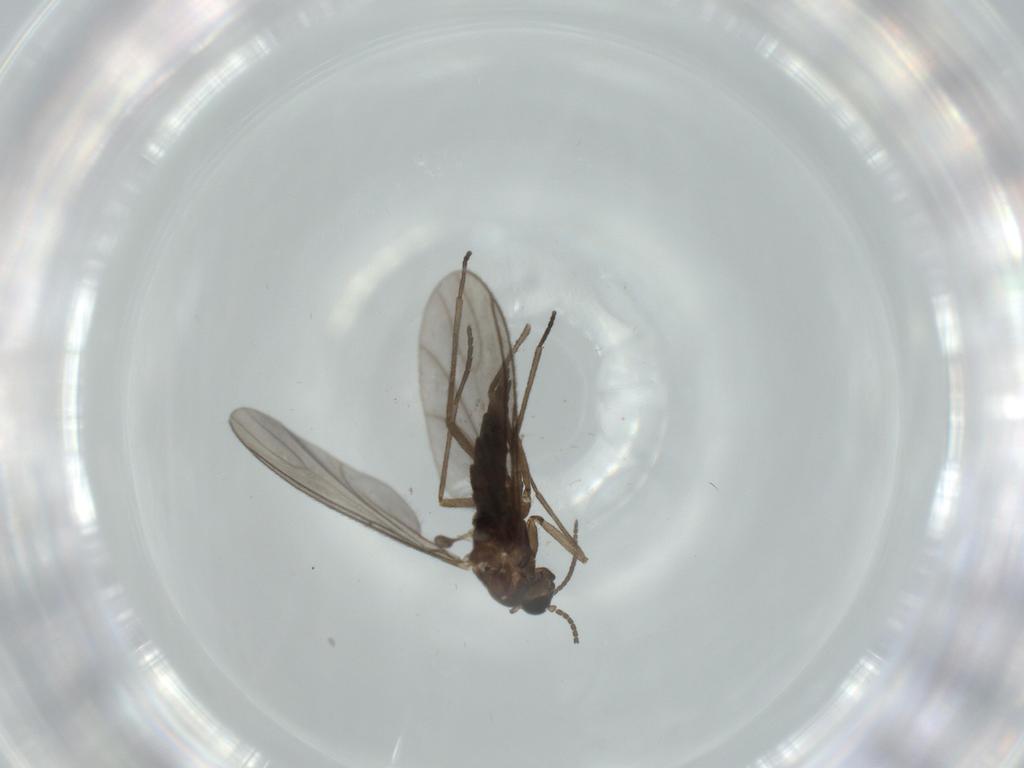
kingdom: Animalia
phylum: Arthropoda
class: Insecta
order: Diptera
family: Sciaridae
